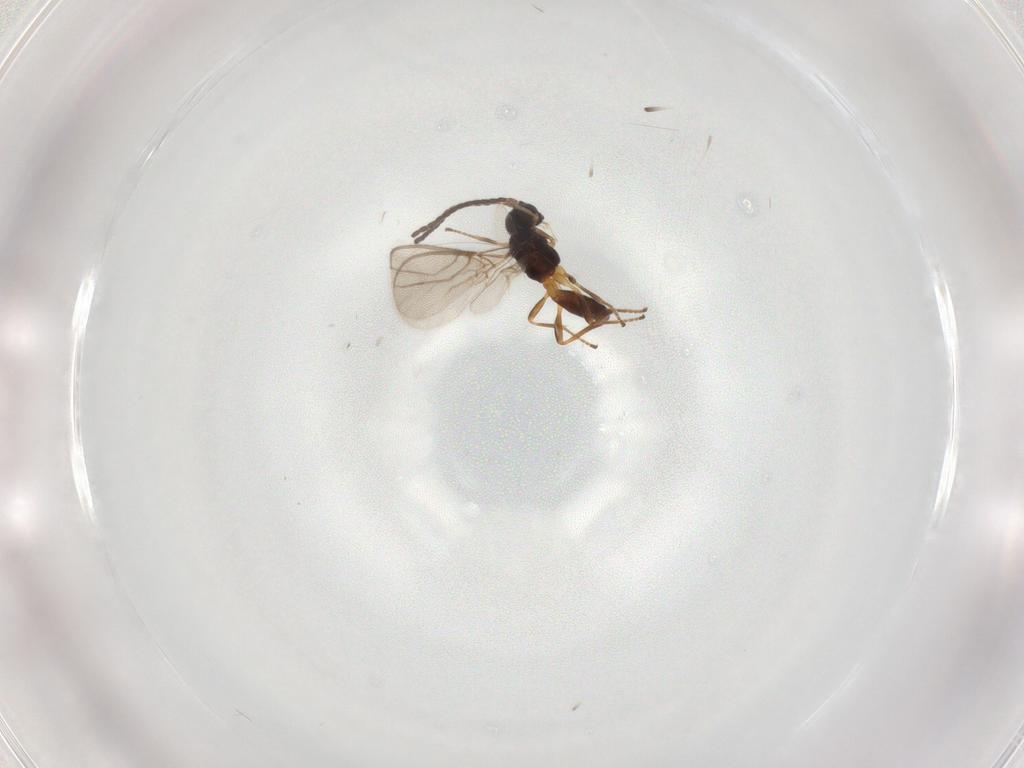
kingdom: Animalia
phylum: Arthropoda
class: Insecta
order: Hymenoptera
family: Braconidae
